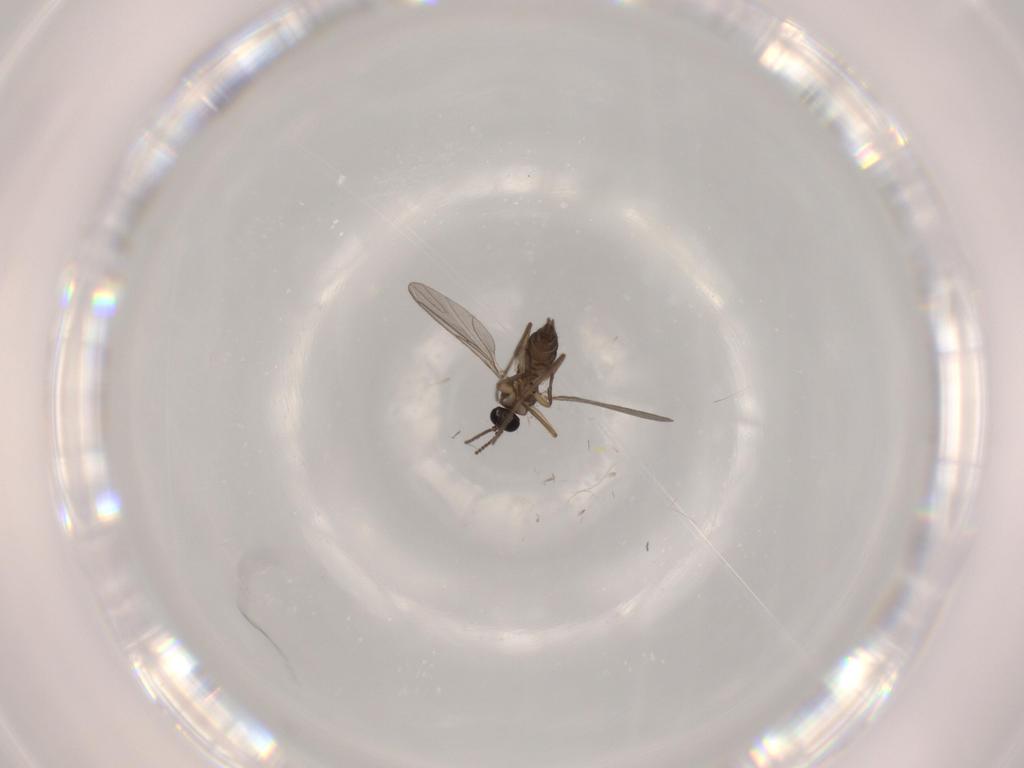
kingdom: Animalia
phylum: Arthropoda
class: Insecta
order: Diptera
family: Sciaridae
